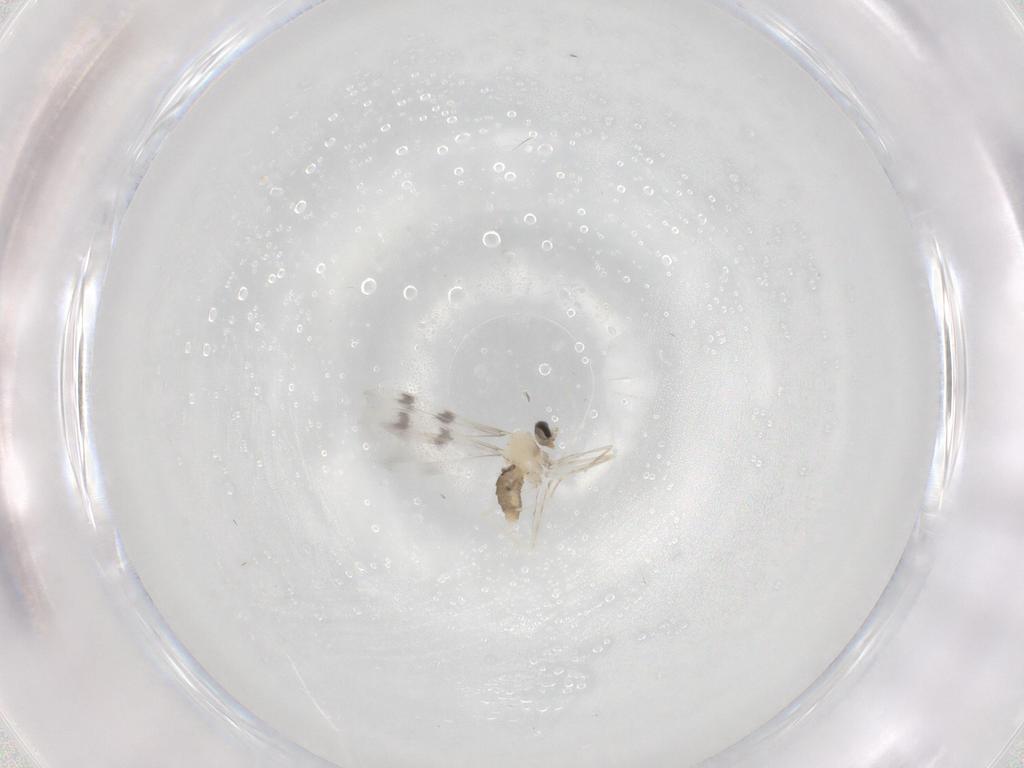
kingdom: Animalia
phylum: Arthropoda
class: Insecta
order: Diptera
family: Cecidomyiidae
